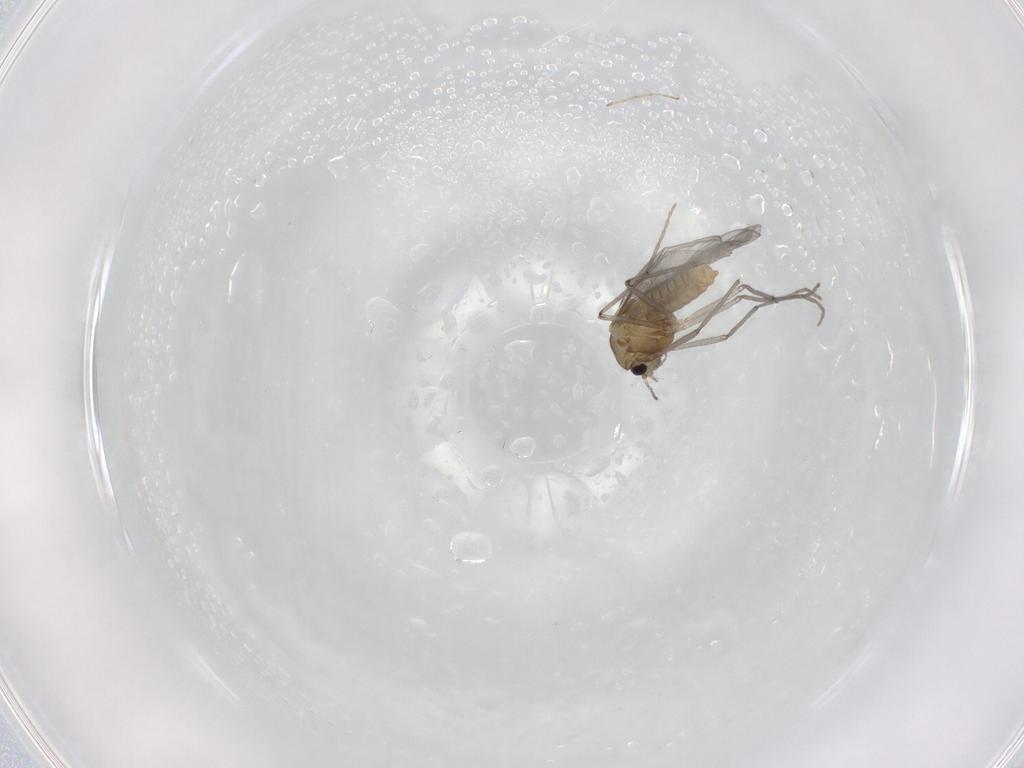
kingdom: Animalia
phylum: Arthropoda
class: Insecta
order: Diptera
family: Chironomidae
